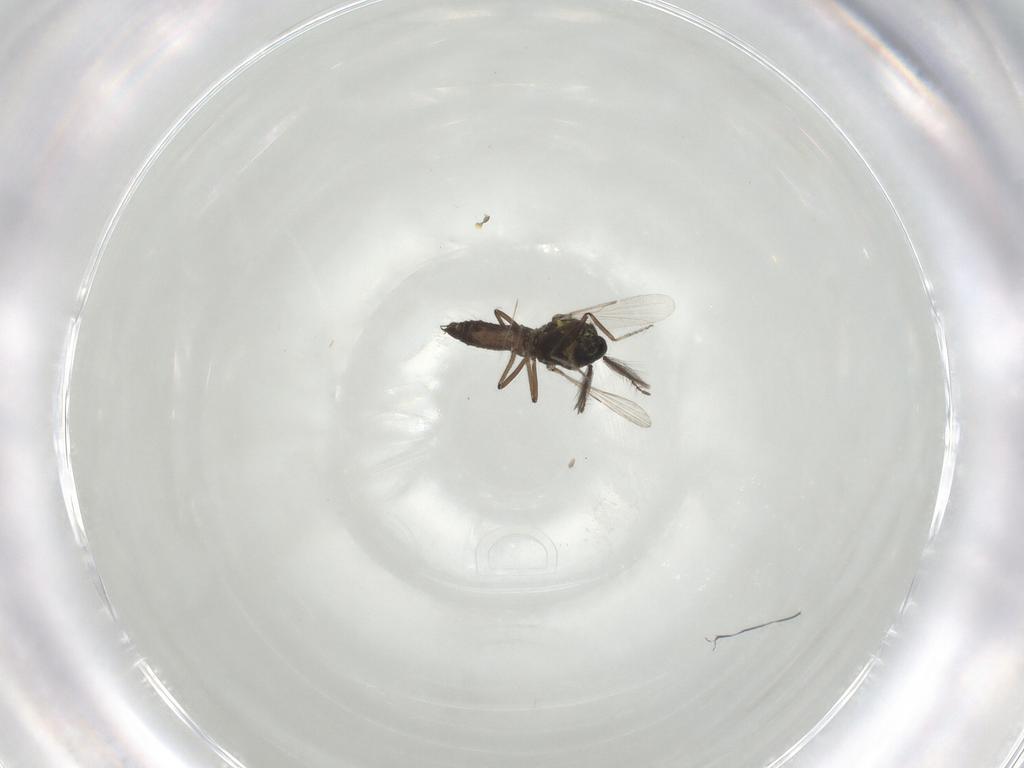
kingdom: Animalia
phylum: Arthropoda
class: Insecta
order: Diptera
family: Ceratopogonidae
